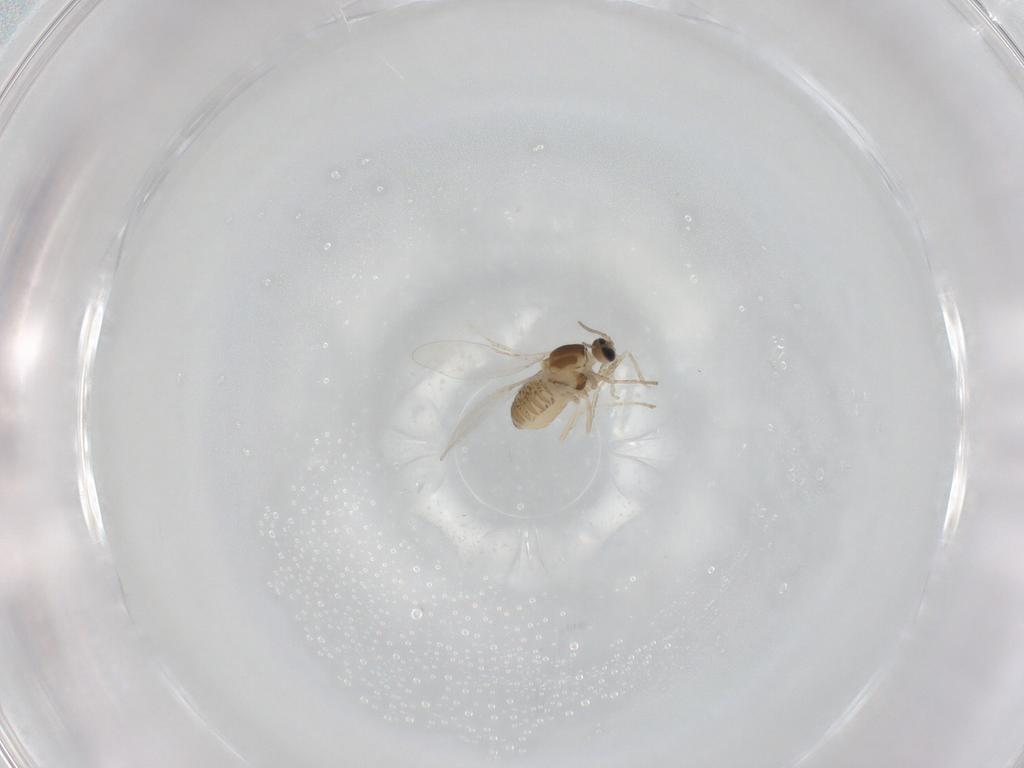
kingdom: Animalia
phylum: Arthropoda
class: Insecta
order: Diptera
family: Cecidomyiidae
